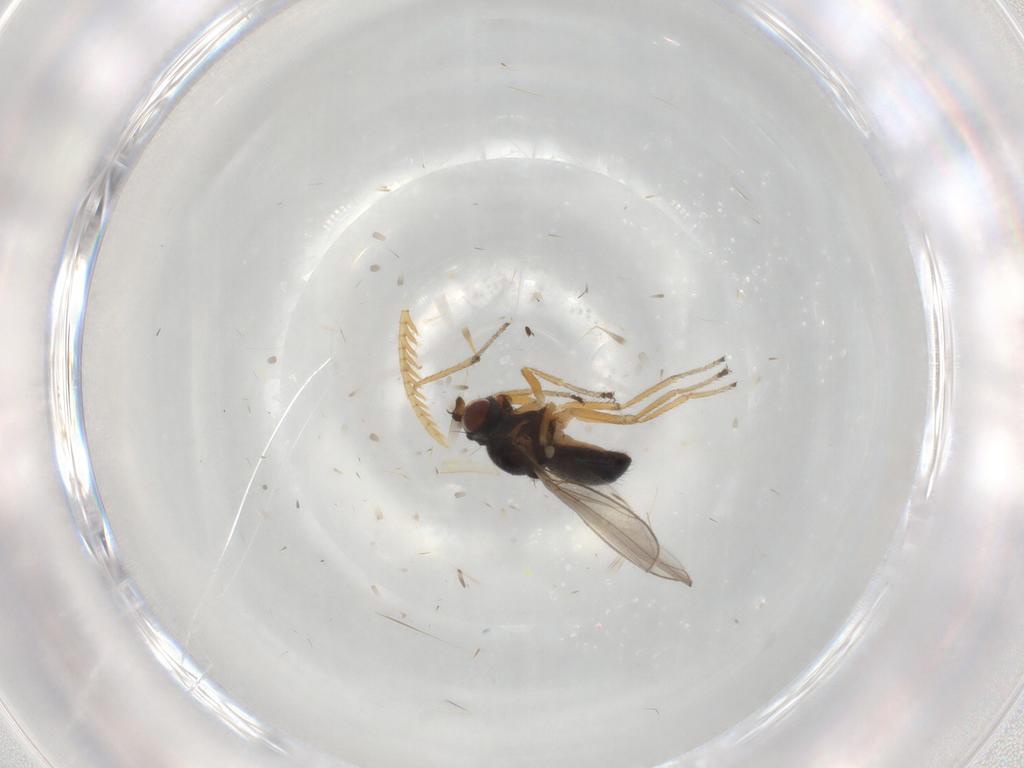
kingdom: Animalia
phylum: Arthropoda
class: Insecta
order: Diptera
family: Ephydridae
